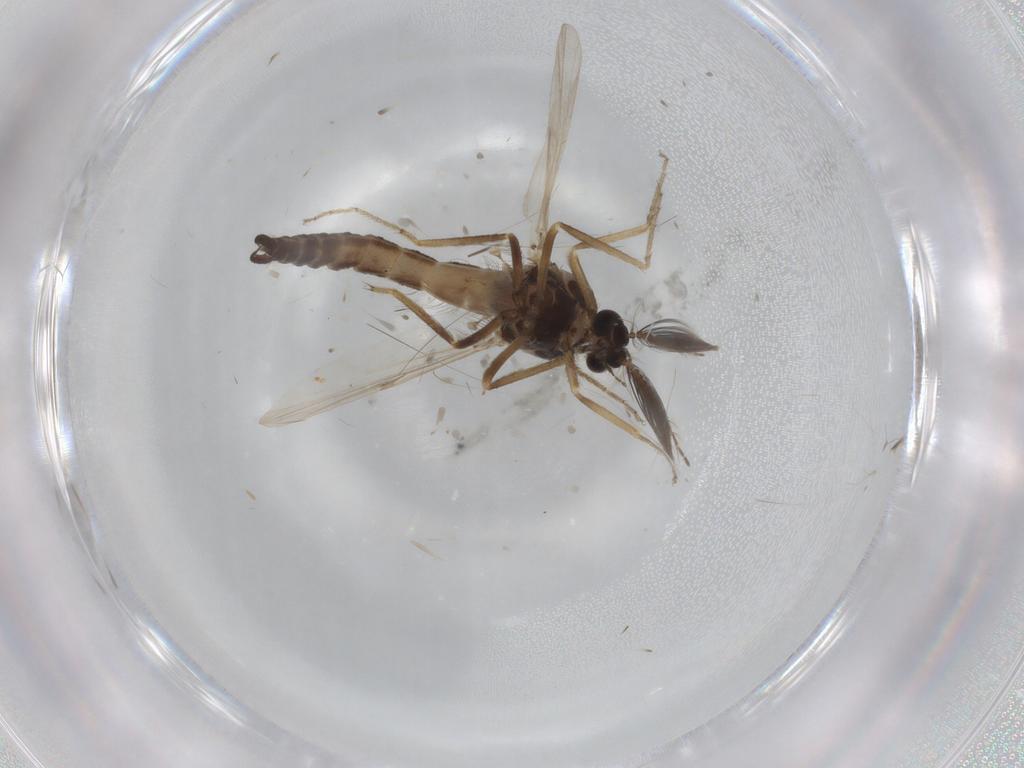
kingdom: Animalia
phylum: Arthropoda
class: Insecta
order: Diptera
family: Ceratopogonidae
